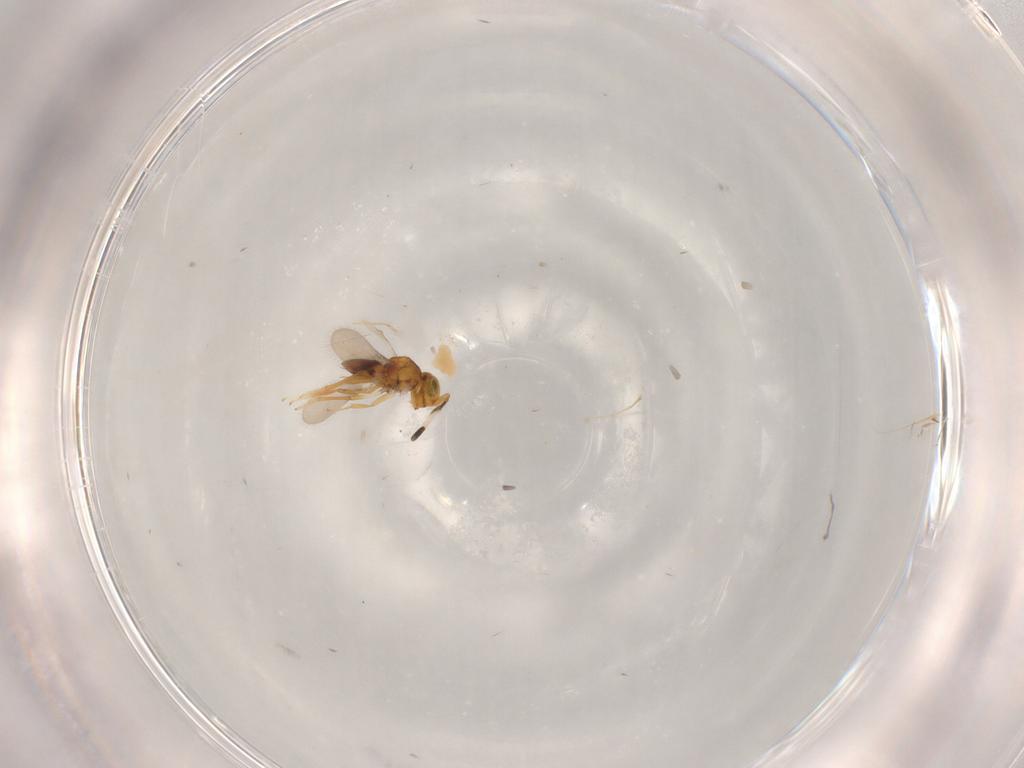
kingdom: Animalia
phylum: Arthropoda
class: Insecta
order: Hymenoptera
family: Formicidae
